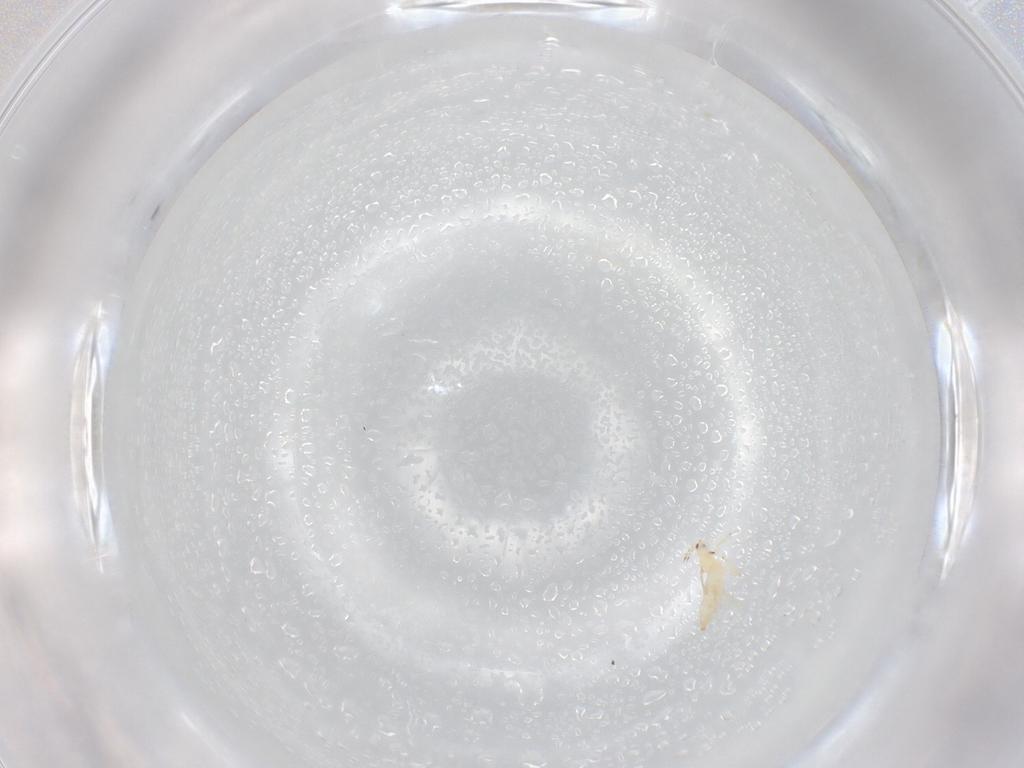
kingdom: Animalia
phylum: Arthropoda
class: Insecta
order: Thysanoptera
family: Thripidae
